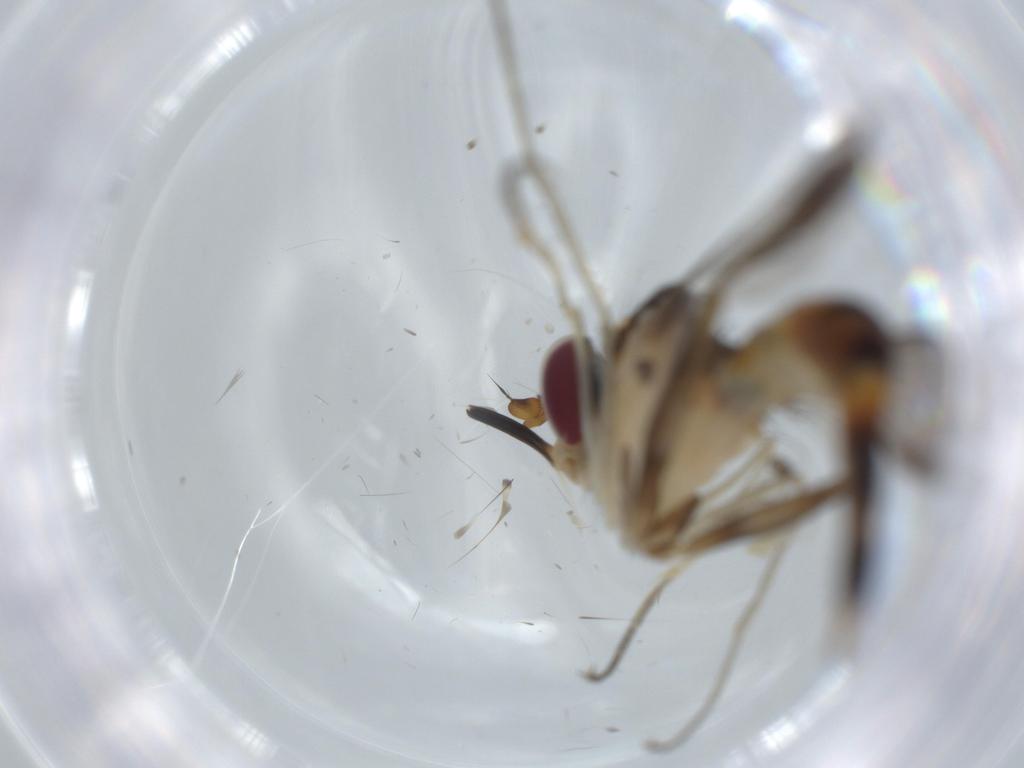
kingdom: Animalia
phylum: Arthropoda
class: Insecta
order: Diptera
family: Conopidae
